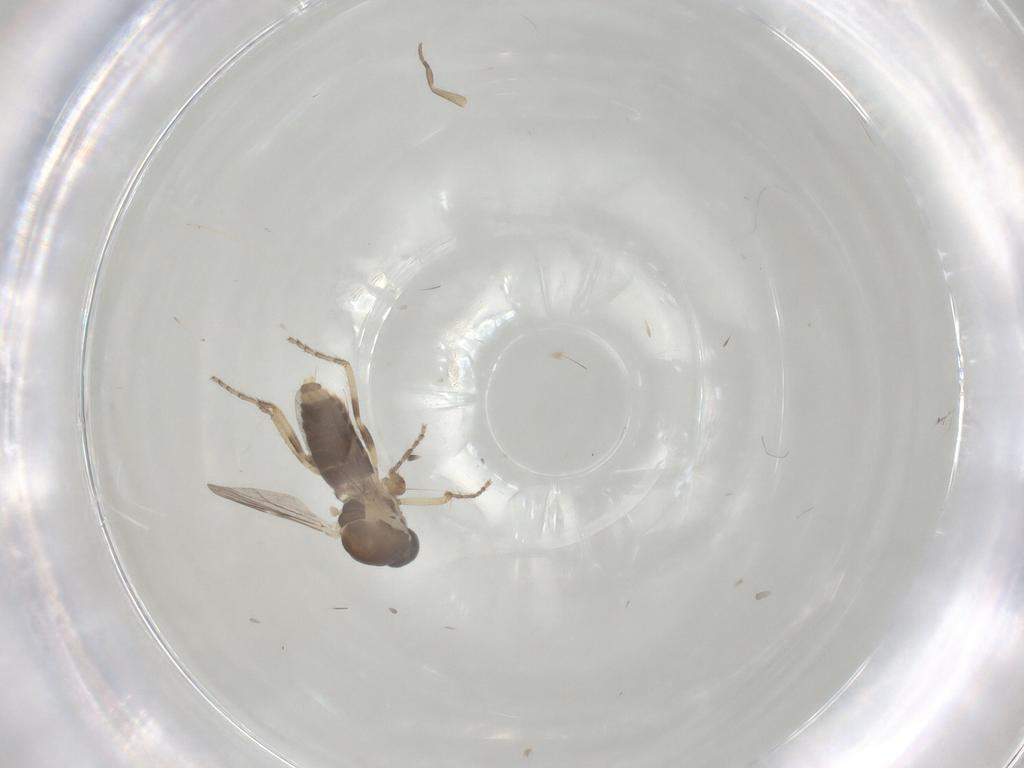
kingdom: Animalia
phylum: Arthropoda
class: Insecta
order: Diptera
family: Ceratopogonidae
